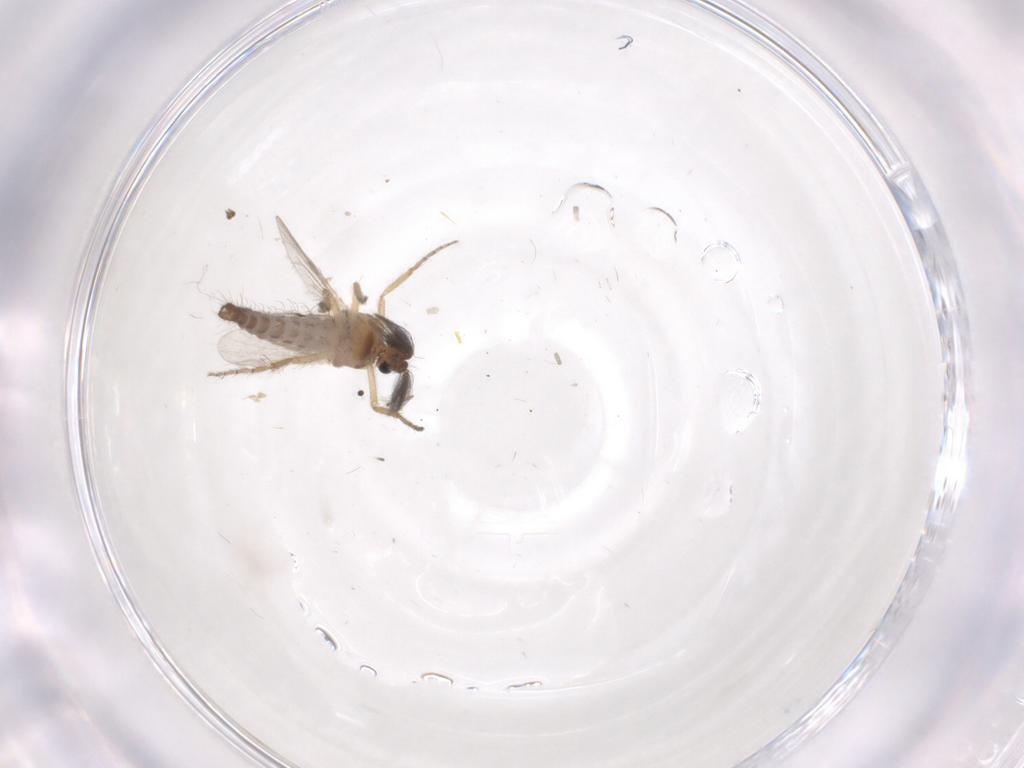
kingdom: Animalia
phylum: Arthropoda
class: Insecta
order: Diptera
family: Ceratopogonidae
